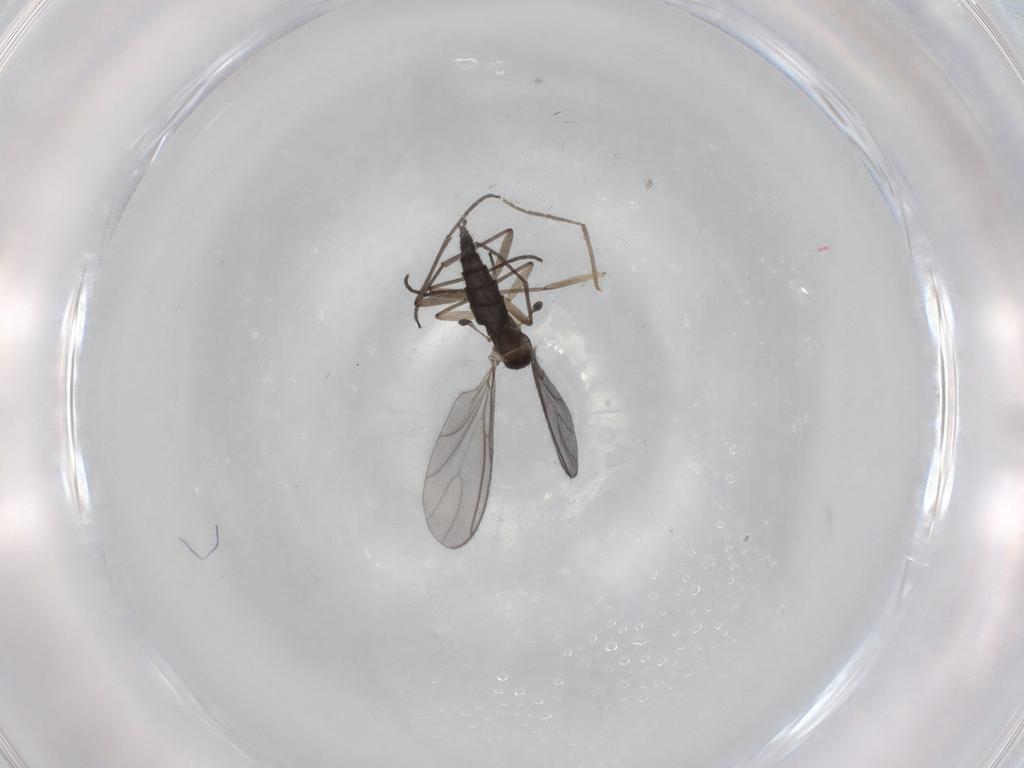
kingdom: Animalia
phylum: Arthropoda
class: Insecta
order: Diptera
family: Sciaridae
